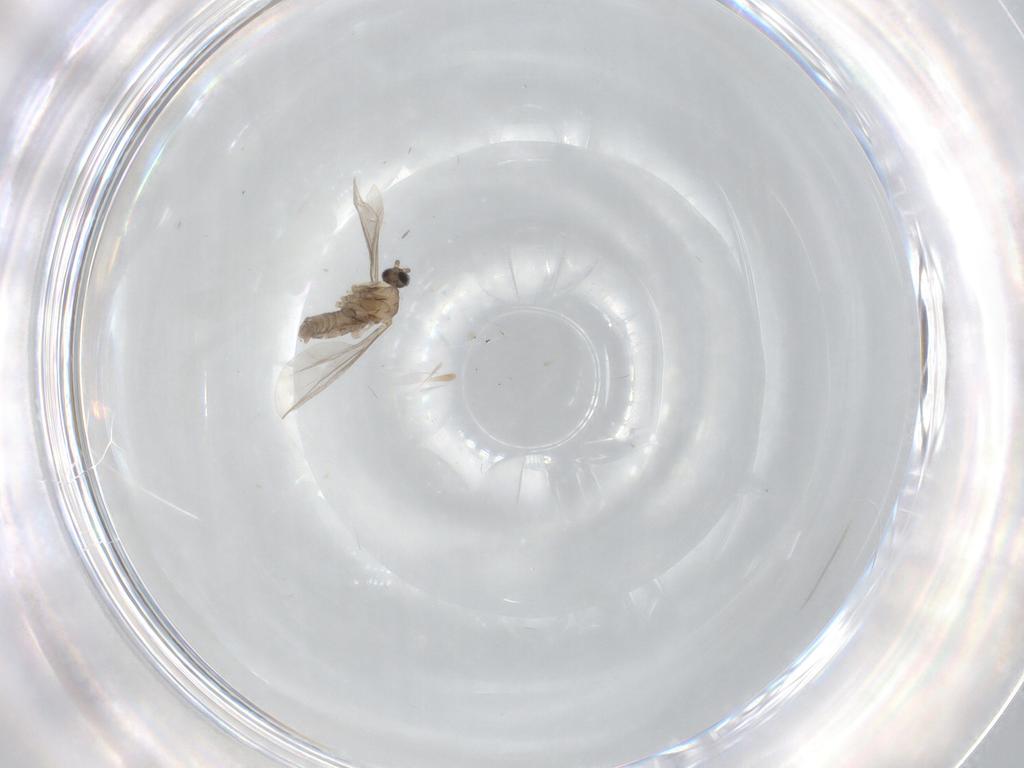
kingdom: Animalia
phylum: Arthropoda
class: Insecta
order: Diptera
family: Cecidomyiidae
